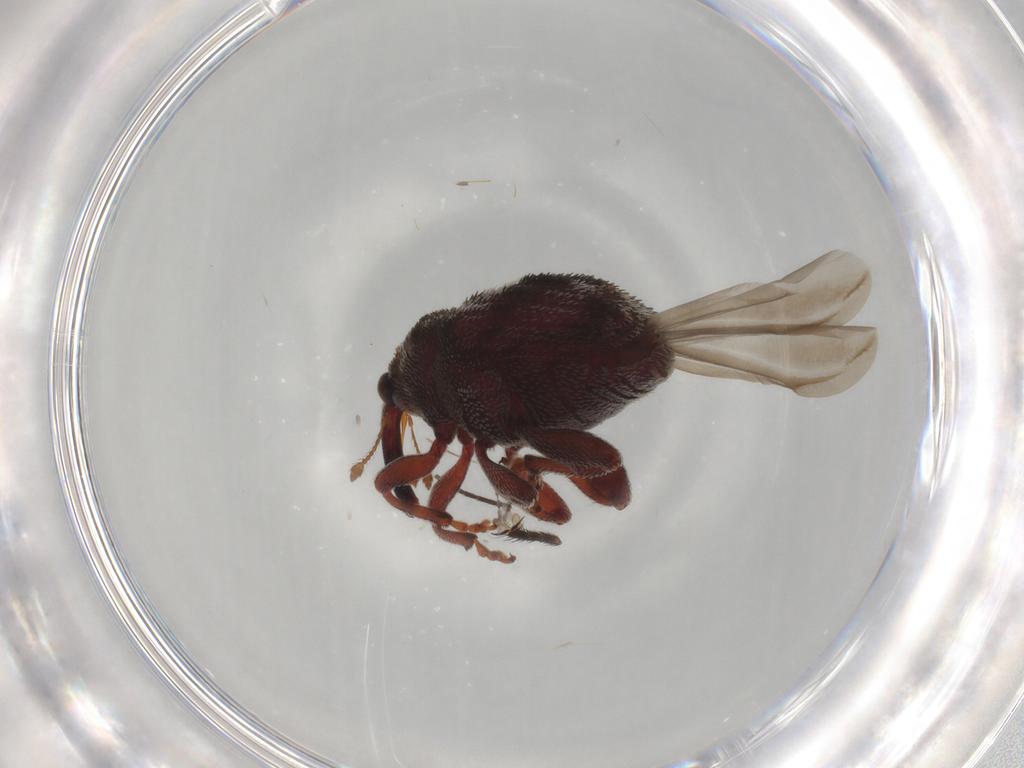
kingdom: Animalia
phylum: Arthropoda
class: Insecta
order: Coleoptera
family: Curculionidae
